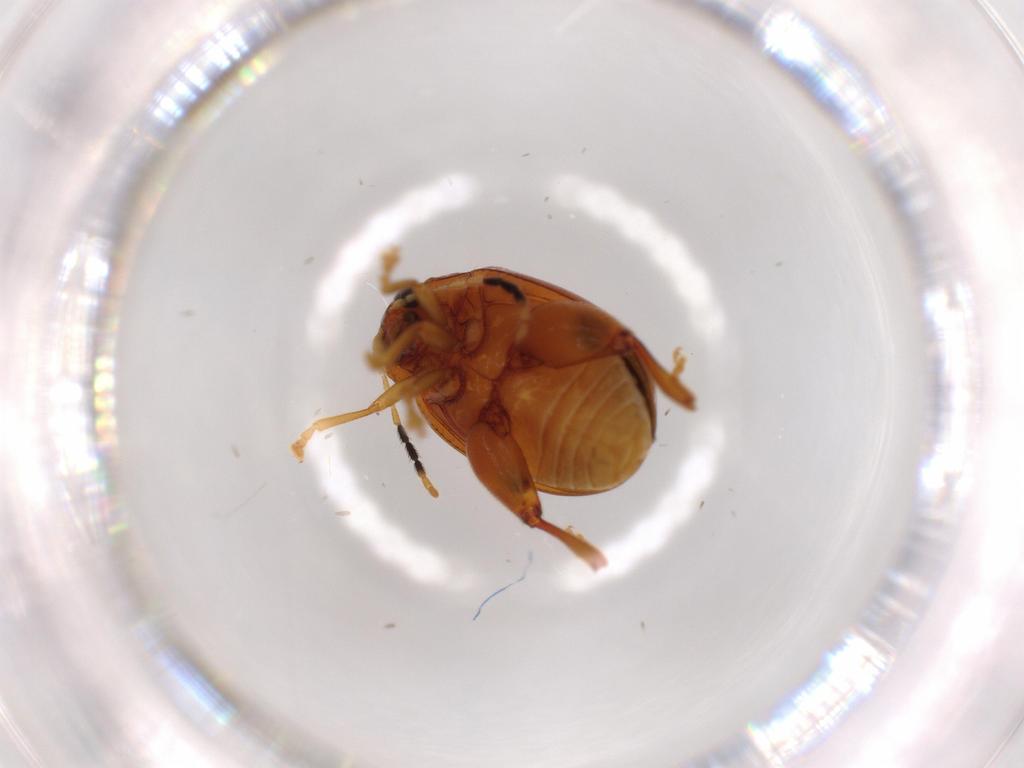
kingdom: Animalia
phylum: Arthropoda
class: Insecta
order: Coleoptera
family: Chrysomelidae
